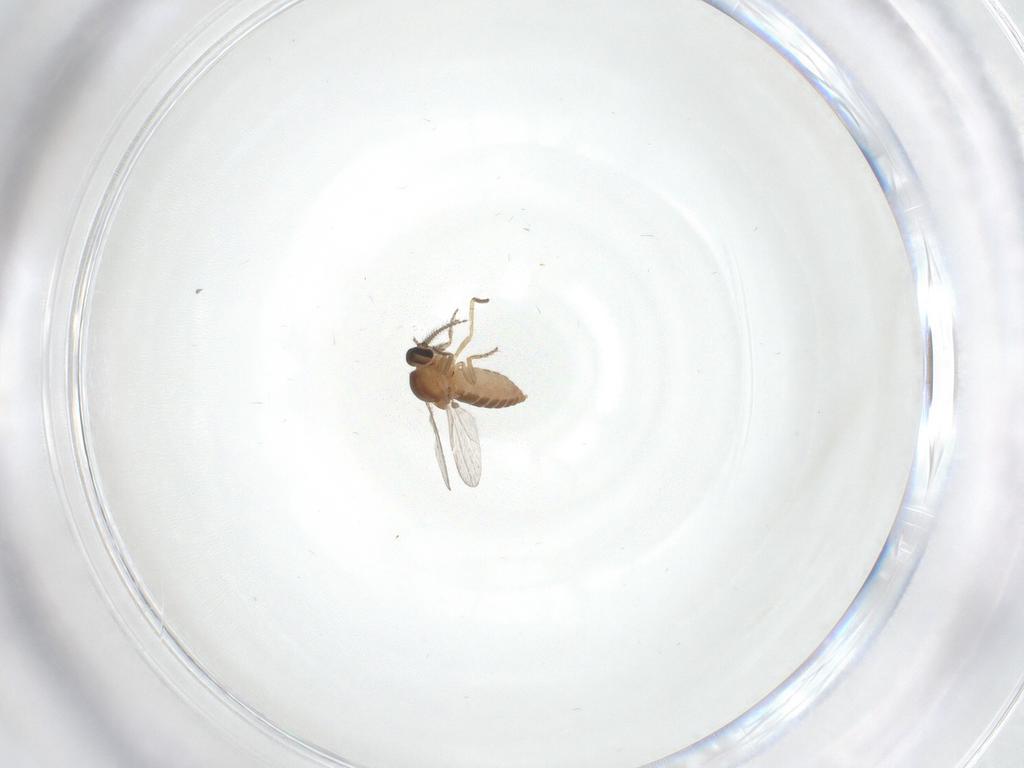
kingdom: Animalia
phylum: Arthropoda
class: Insecta
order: Diptera
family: Ceratopogonidae
